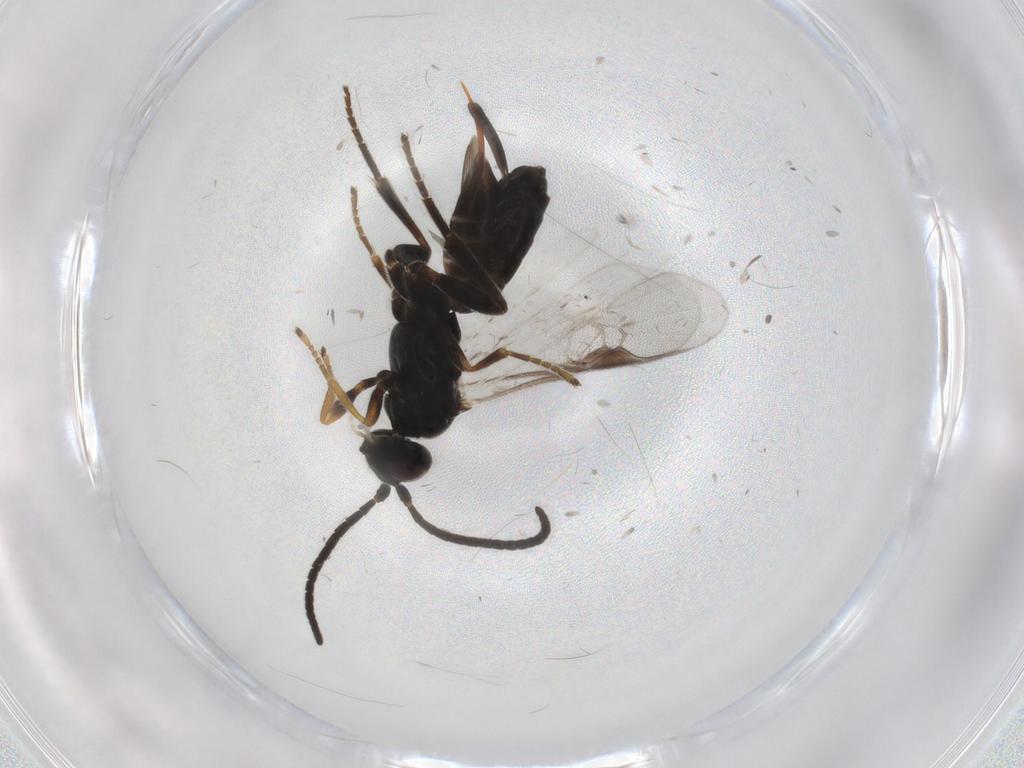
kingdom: Animalia
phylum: Arthropoda
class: Insecta
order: Hymenoptera
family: Braconidae
